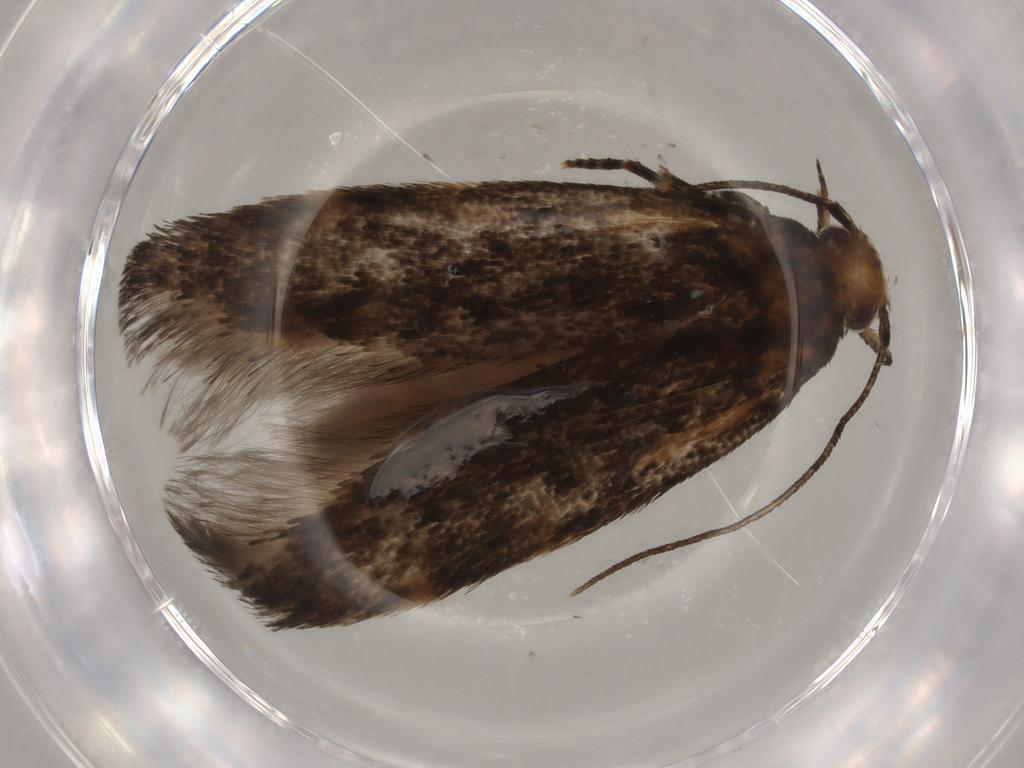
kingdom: Animalia
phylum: Arthropoda
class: Insecta
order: Lepidoptera
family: Gelechiidae
